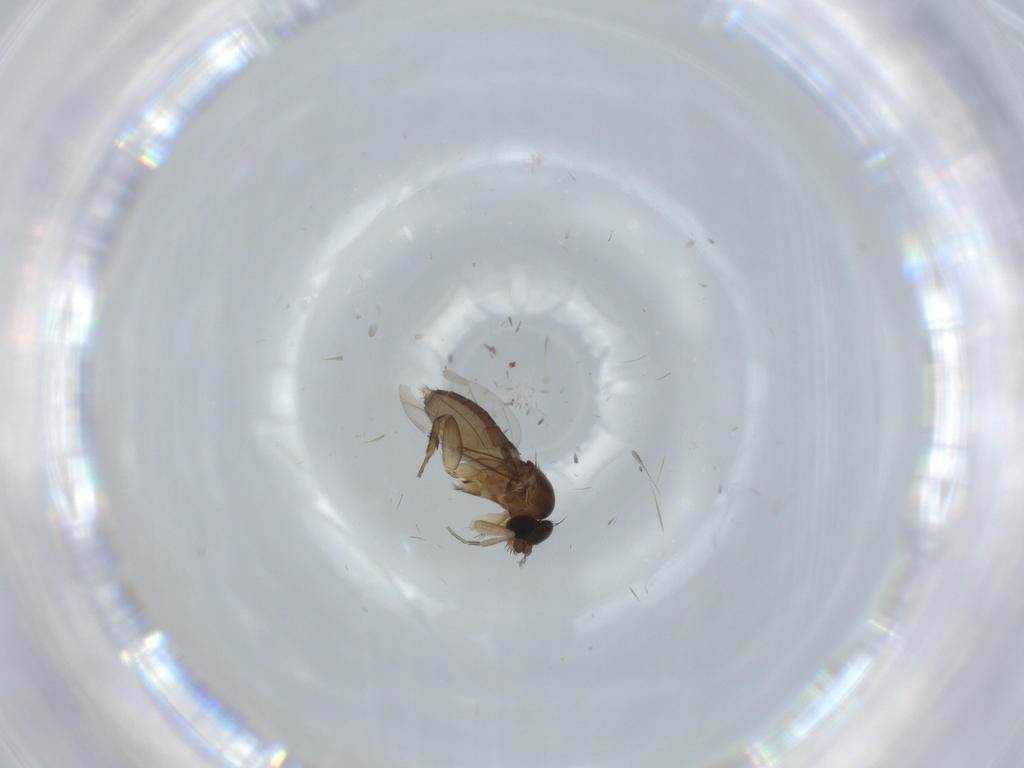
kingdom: Animalia
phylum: Arthropoda
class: Insecta
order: Diptera
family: Phoridae
